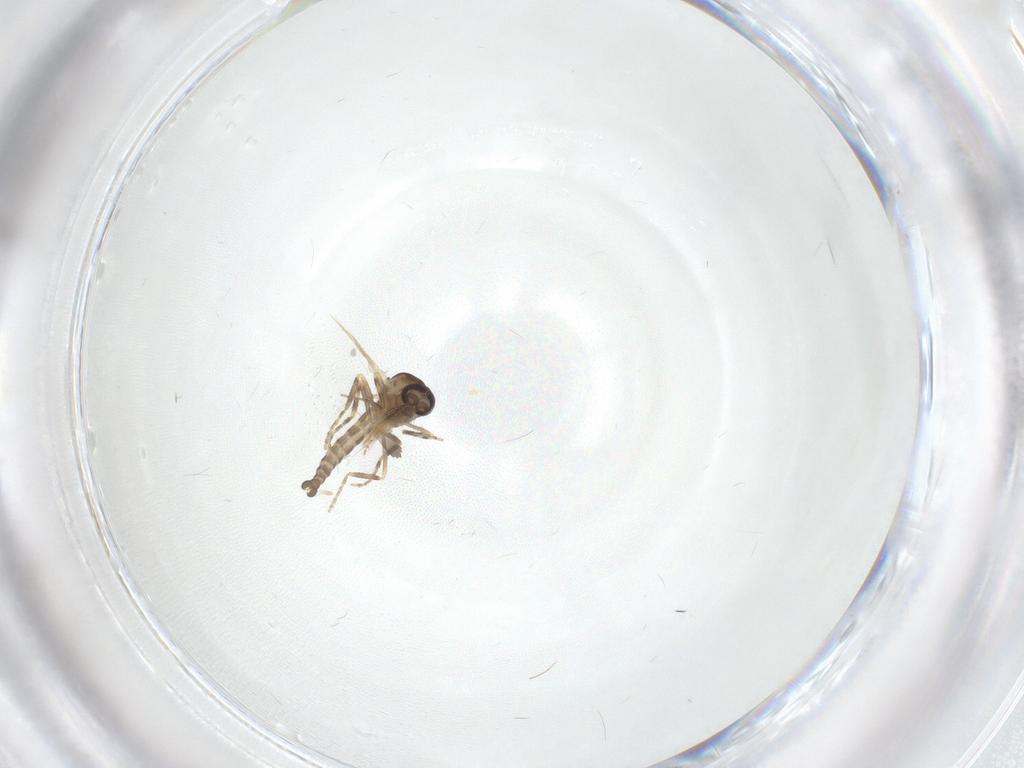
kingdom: Animalia
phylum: Arthropoda
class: Insecta
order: Diptera
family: Ceratopogonidae
